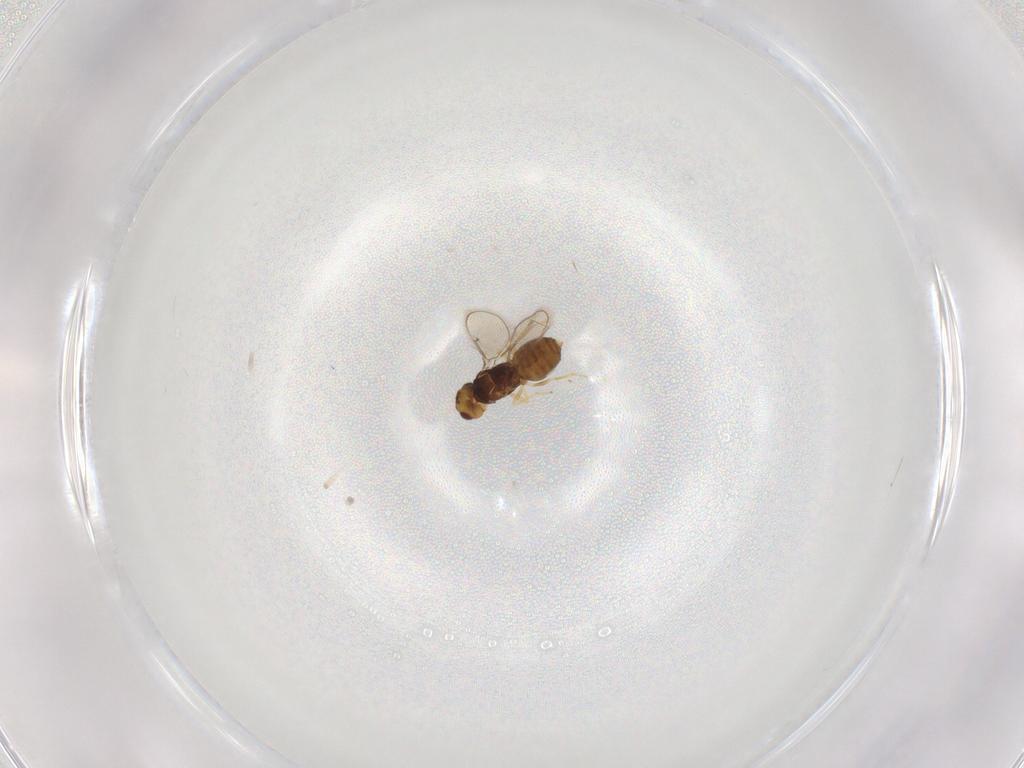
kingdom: Animalia
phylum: Arthropoda
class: Insecta
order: Hymenoptera
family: Eulophidae
